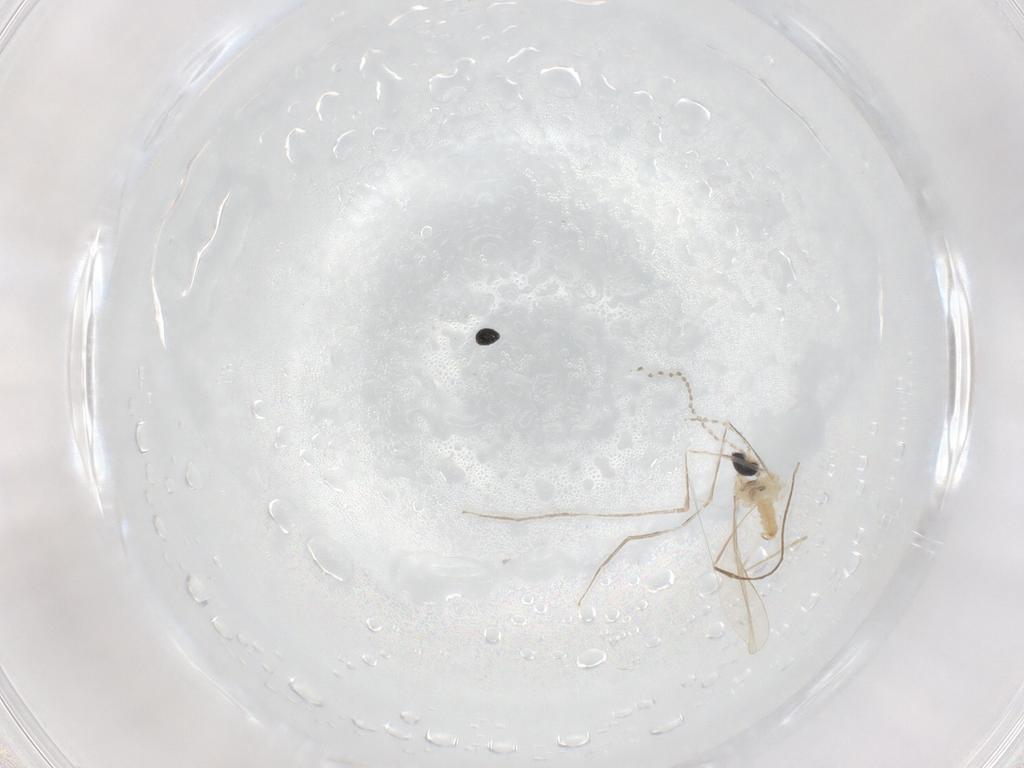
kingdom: Animalia
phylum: Arthropoda
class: Insecta
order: Diptera
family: Cecidomyiidae
